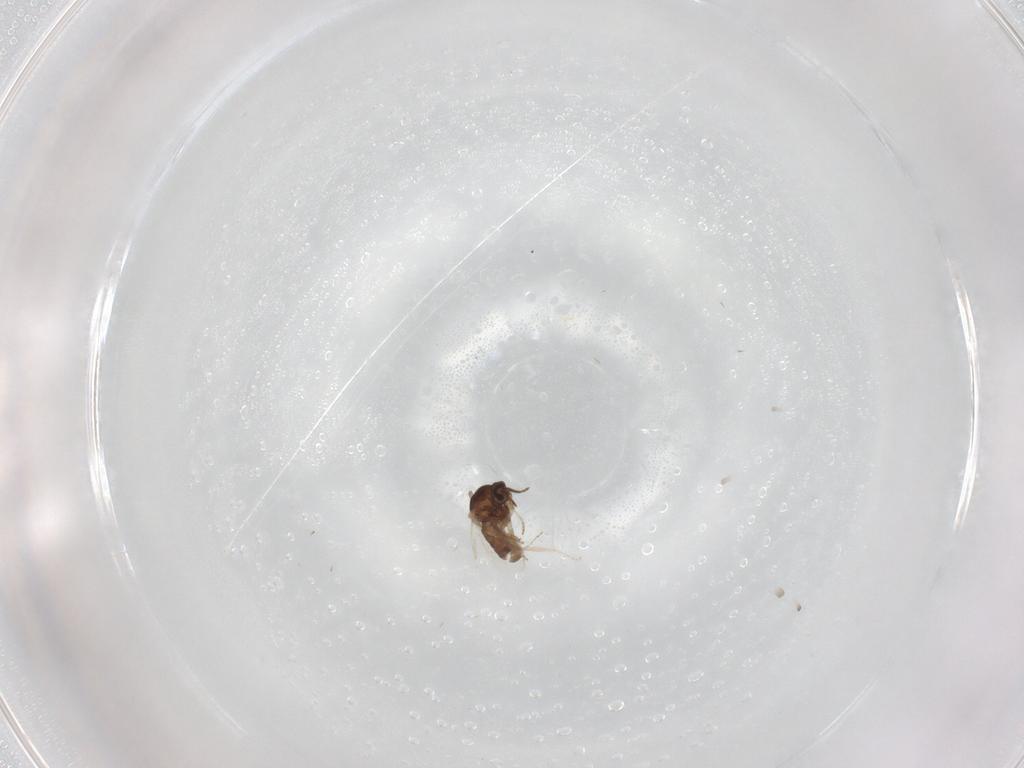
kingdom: Animalia
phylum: Arthropoda
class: Insecta
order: Diptera
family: Ceratopogonidae
